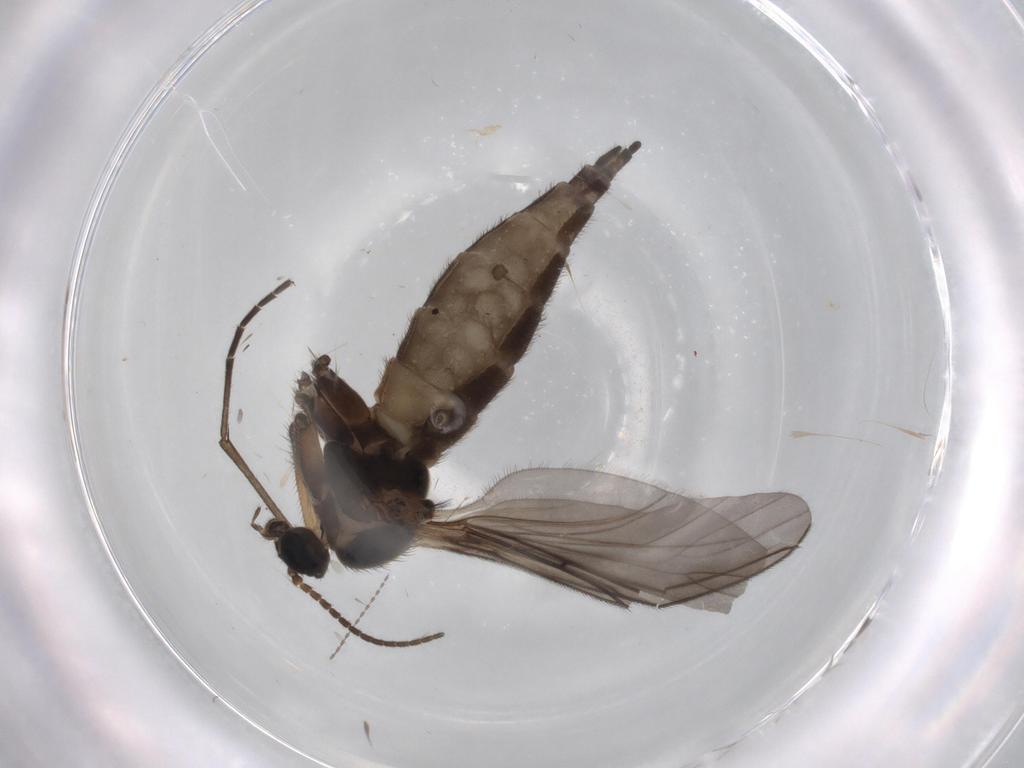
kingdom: Animalia
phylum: Arthropoda
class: Insecta
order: Diptera
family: Sciaridae
